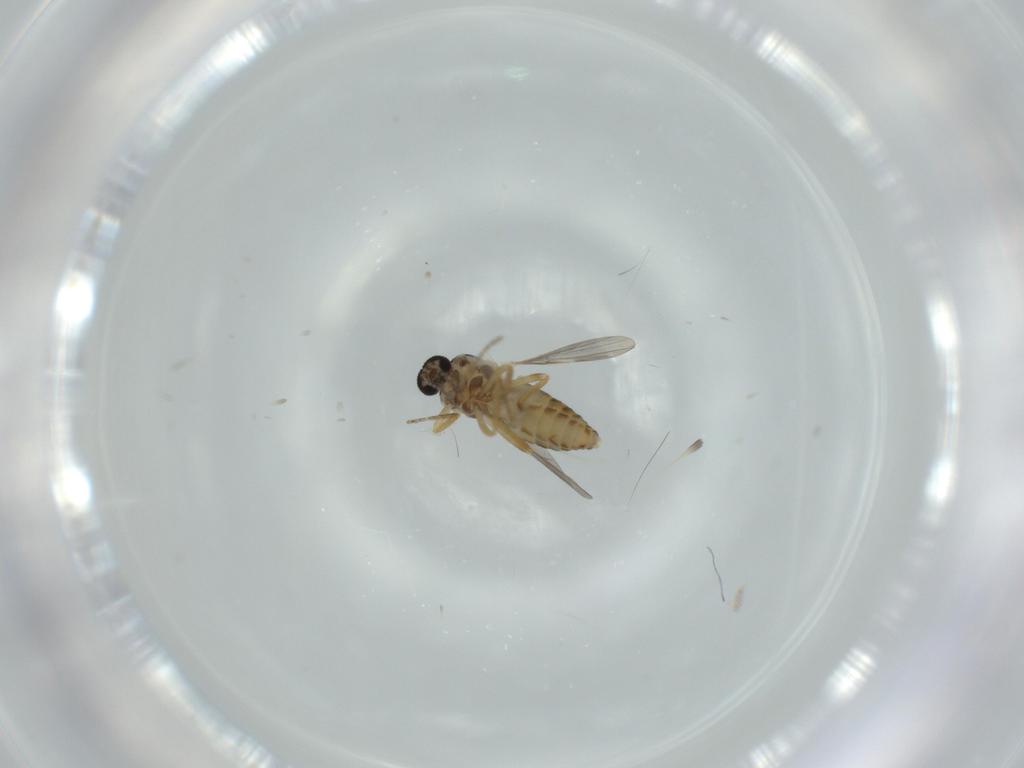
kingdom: Animalia
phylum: Arthropoda
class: Insecta
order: Diptera
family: Ceratopogonidae
